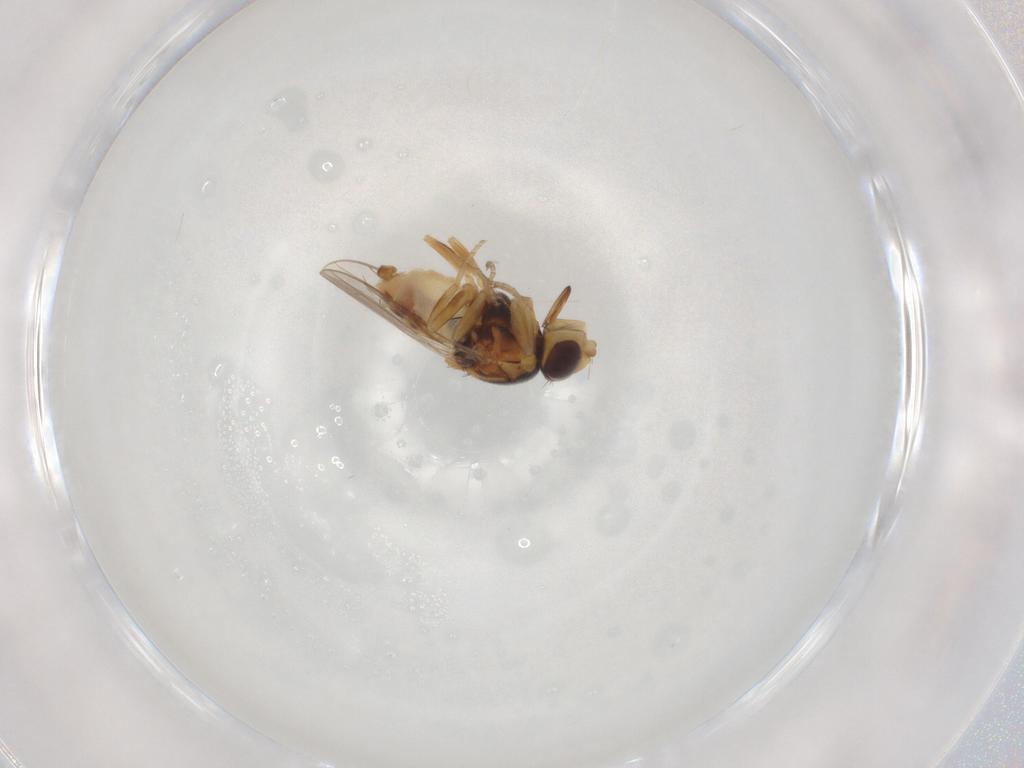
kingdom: Animalia
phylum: Arthropoda
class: Insecta
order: Diptera
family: Chloropidae
